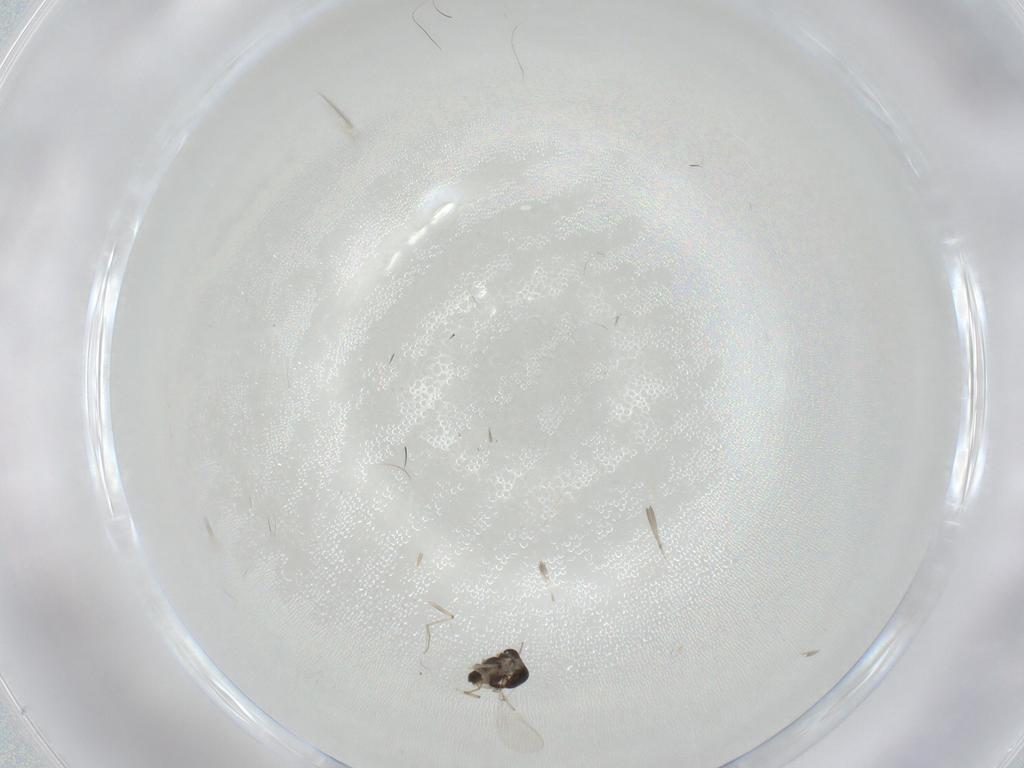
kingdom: Animalia
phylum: Arthropoda
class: Insecta
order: Diptera
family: Chironomidae
